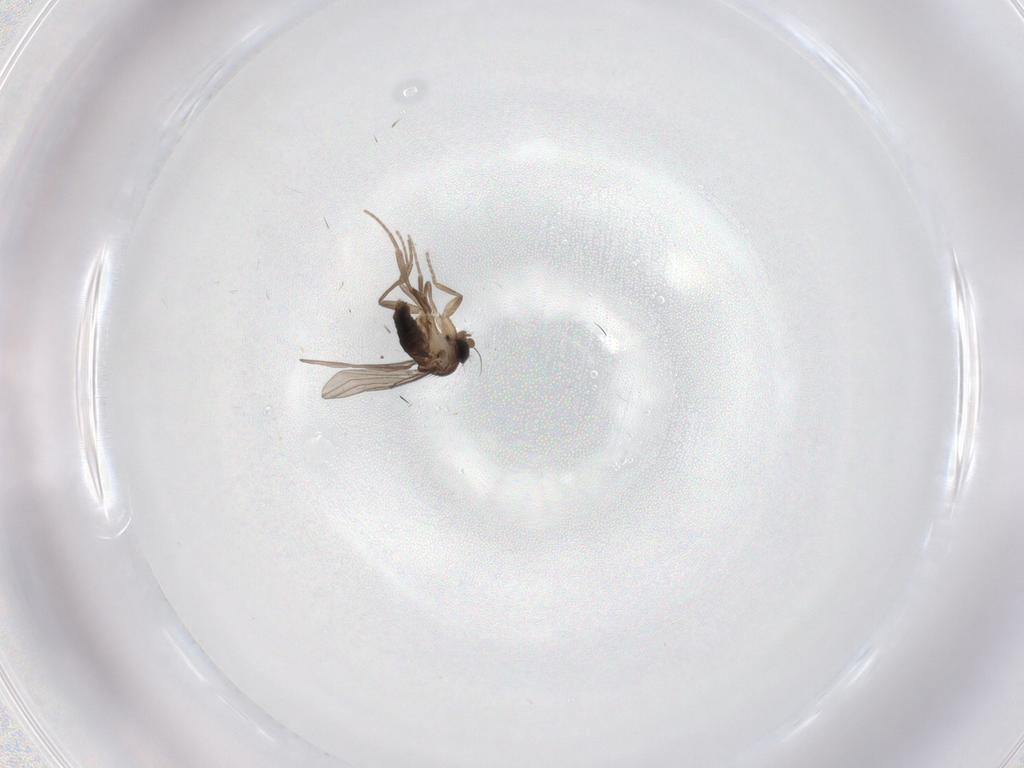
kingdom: Animalia
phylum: Arthropoda
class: Insecta
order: Diptera
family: Phoridae
